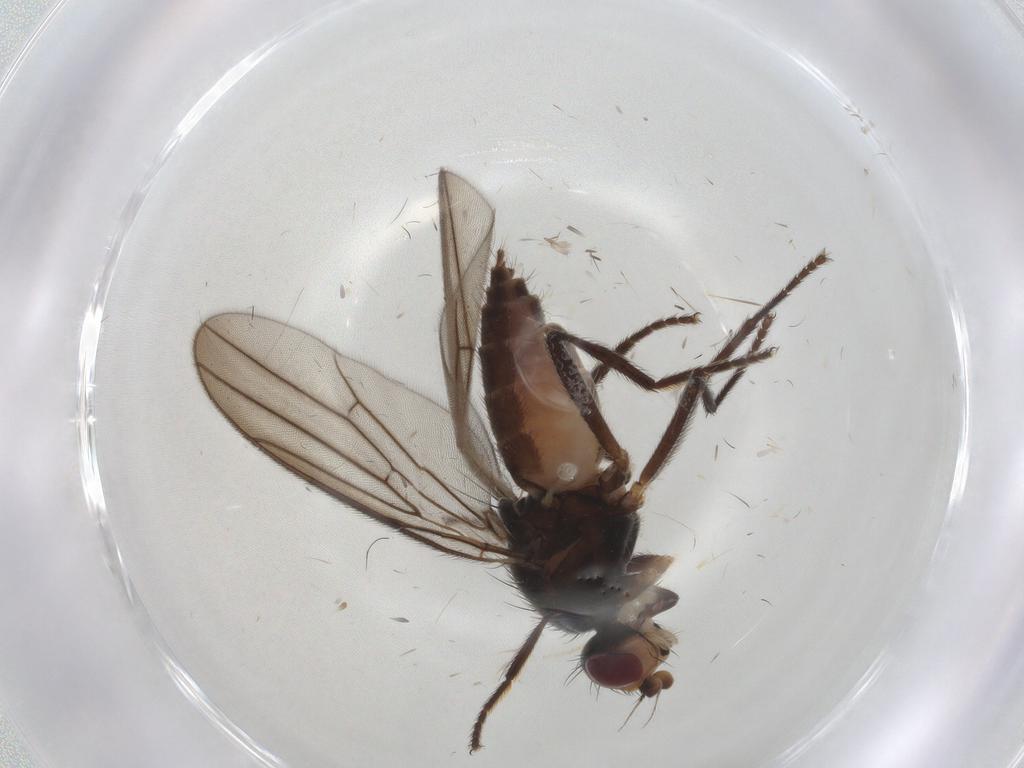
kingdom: Animalia
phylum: Arthropoda
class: Insecta
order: Diptera
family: Chloropidae
